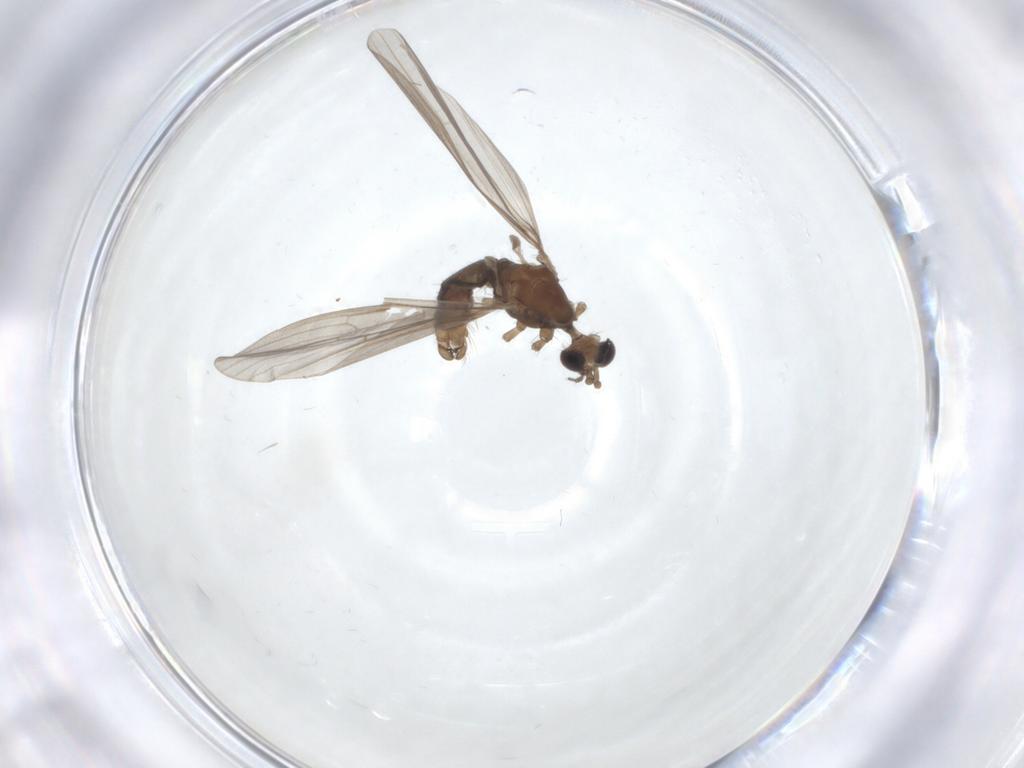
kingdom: Animalia
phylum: Arthropoda
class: Insecta
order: Diptera
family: Limoniidae
